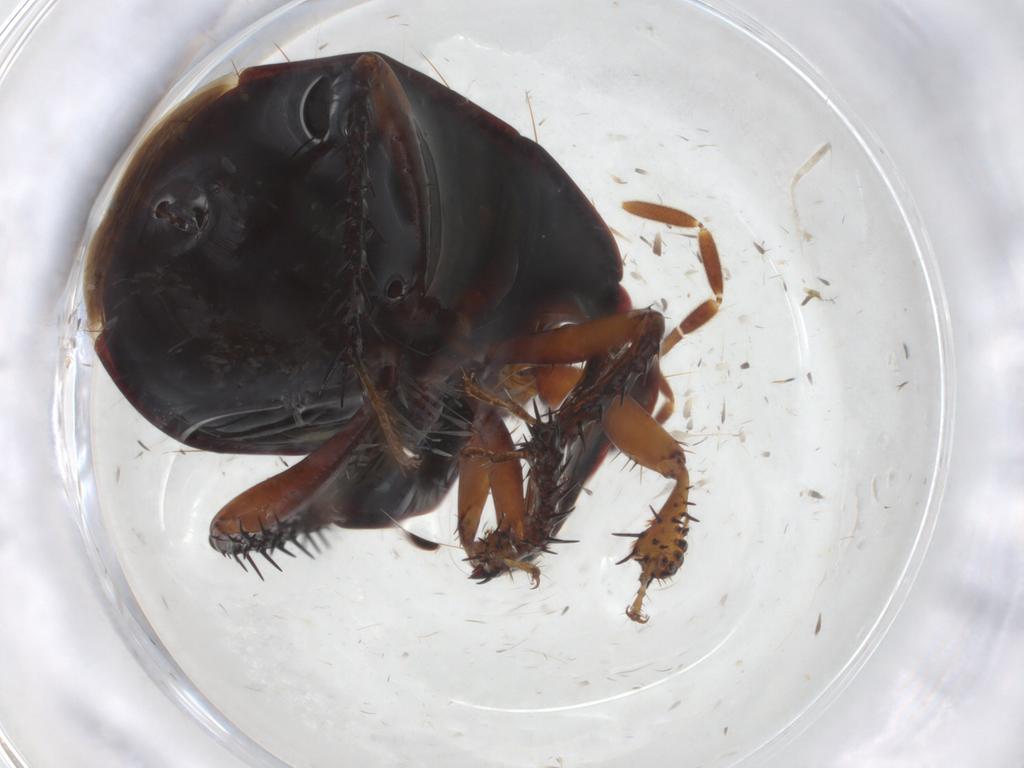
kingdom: Animalia
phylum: Arthropoda
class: Insecta
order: Hemiptera
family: Cydnidae
